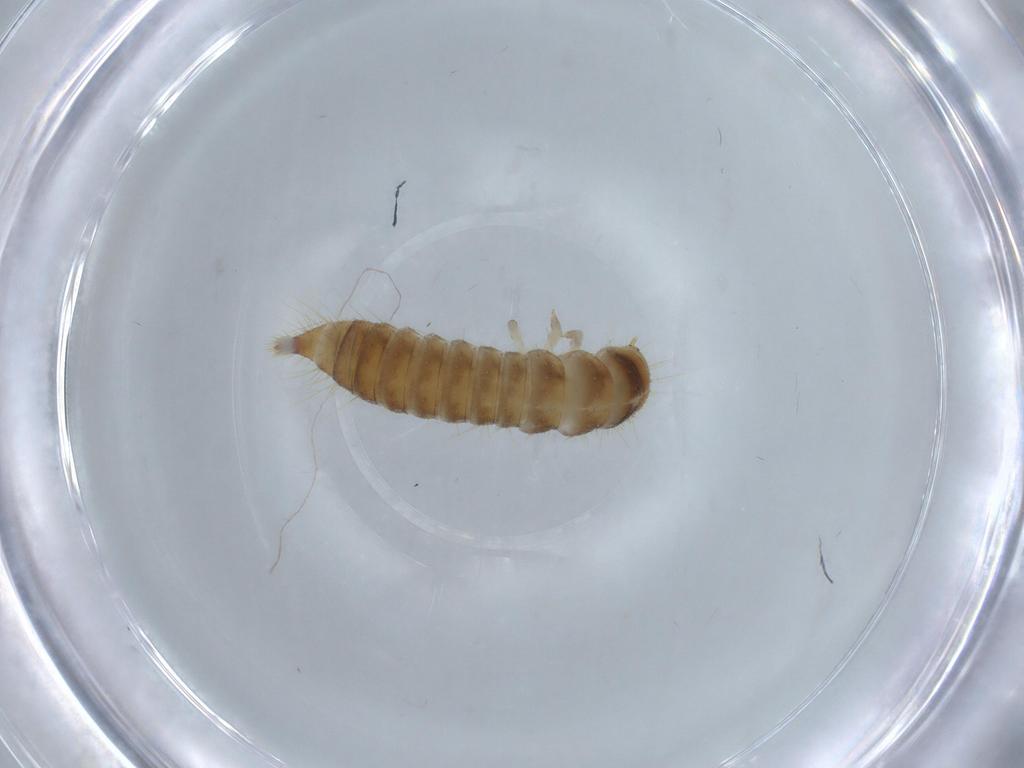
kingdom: Animalia
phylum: Arthropoda
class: Insecta
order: Coleoptera
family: Tenebrionidae
